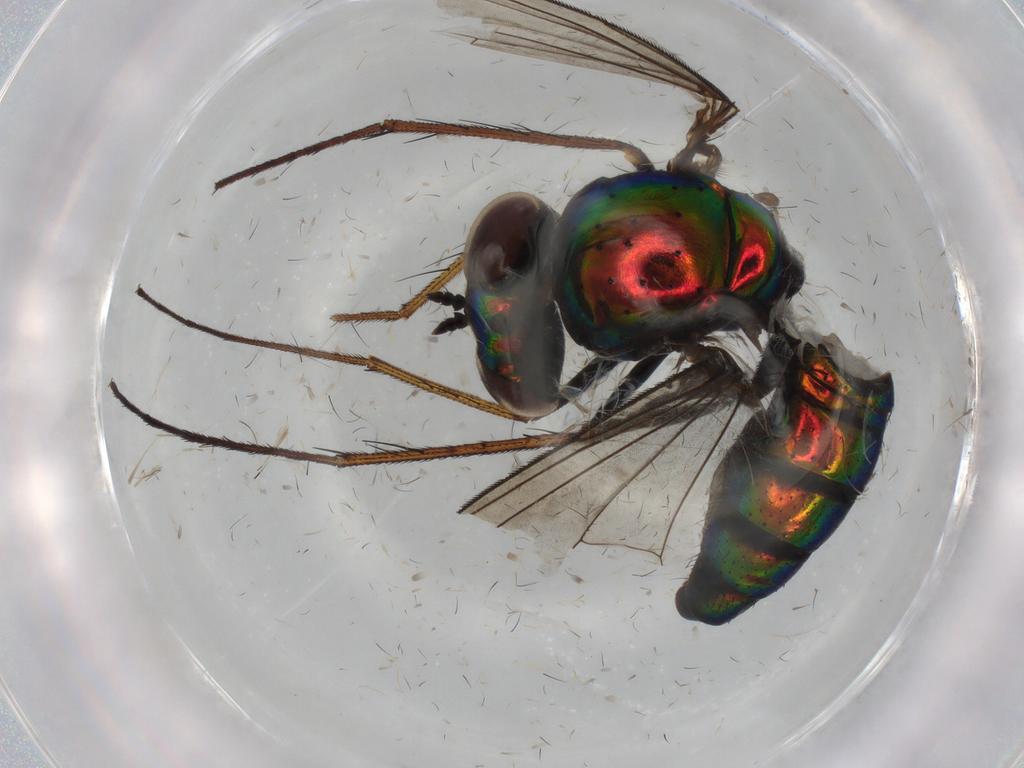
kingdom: Animalia
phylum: Arthropoda
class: Insecta
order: Diptera
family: Dolichopodidae
